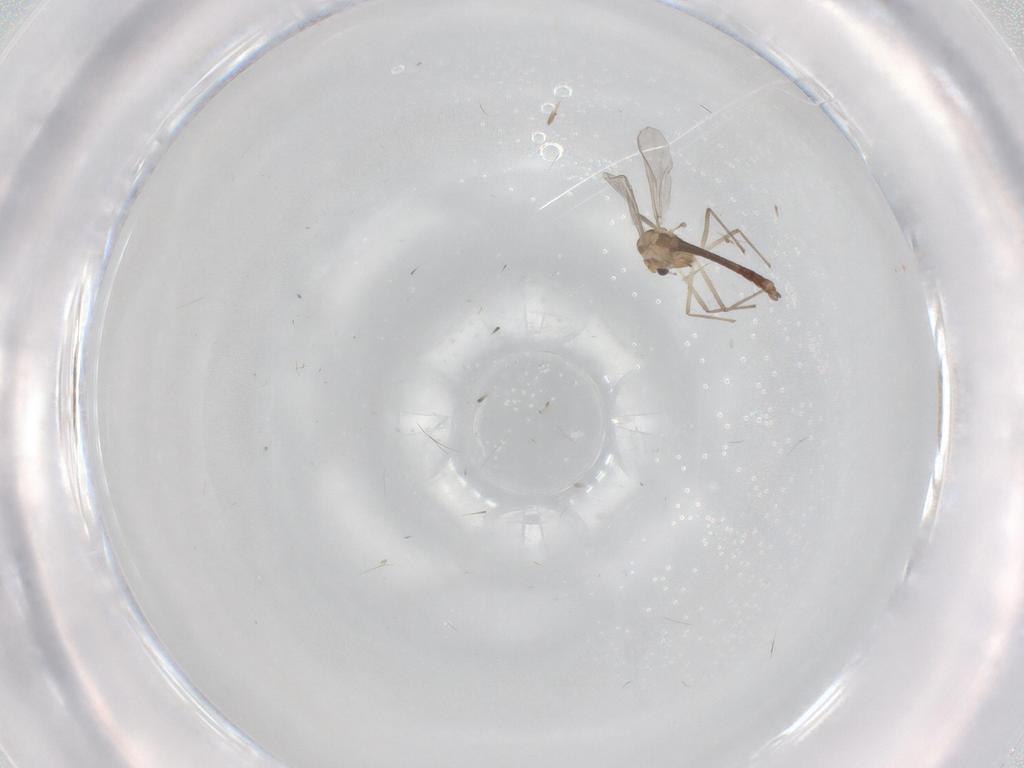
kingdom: Animalia
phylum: Arthropoda
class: Insecta
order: Diptera
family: Chironomidae
